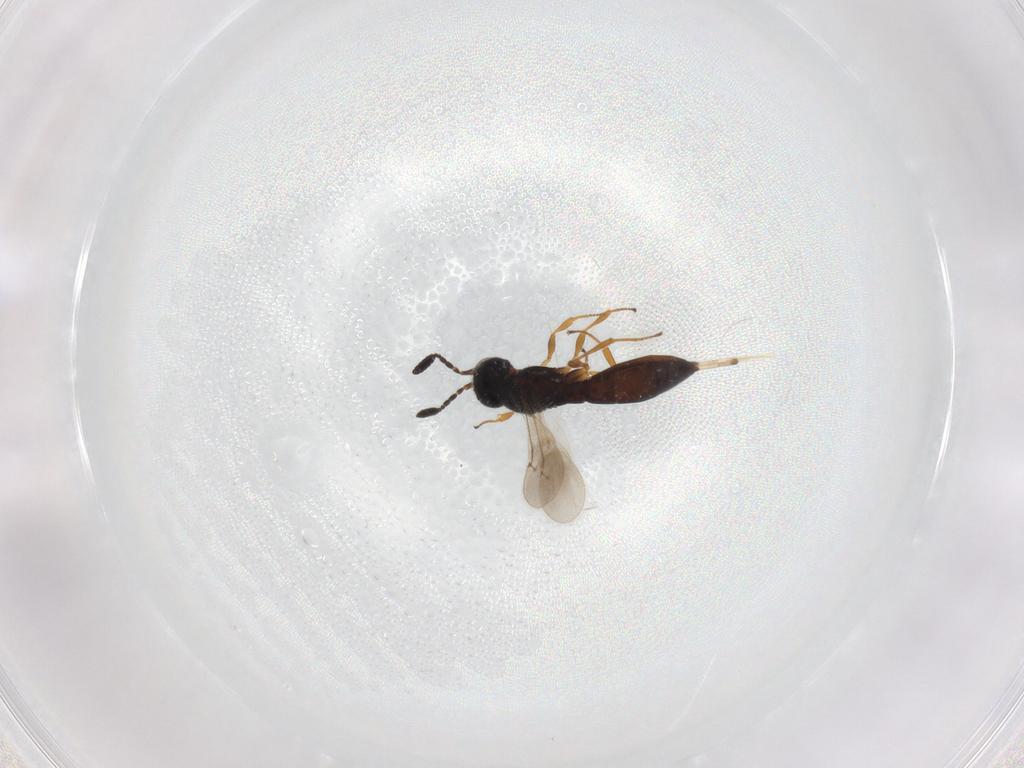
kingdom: Animalia
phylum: Arthropoda
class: Insecta
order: Hymenoptera
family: Scelionidae
